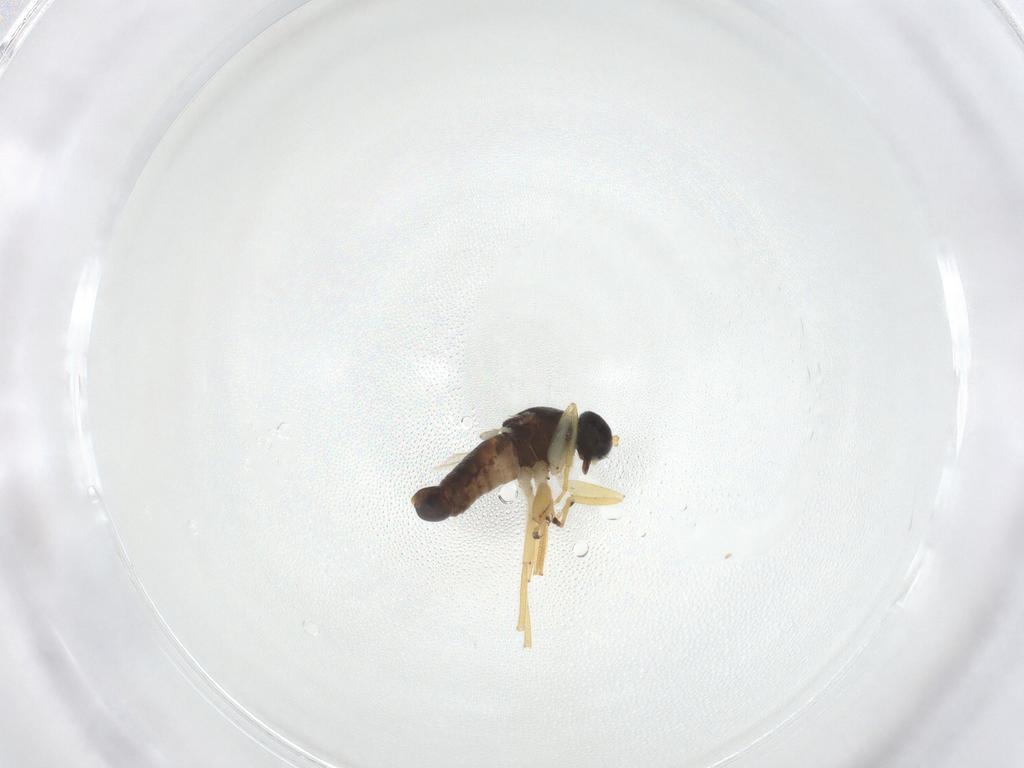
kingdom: Animalia
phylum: Arthropoda
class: Insecta
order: Diptera
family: Hybotidae
